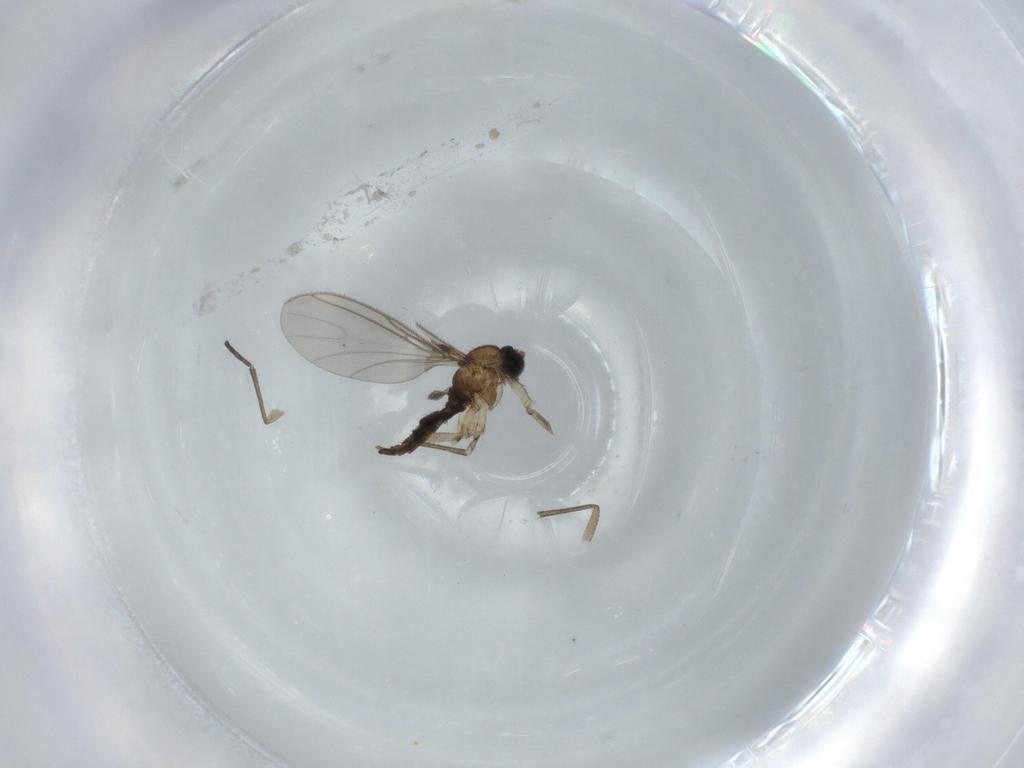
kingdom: Animalia
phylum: Arthropoda
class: Insecta
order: Diptera
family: Sciaridae
